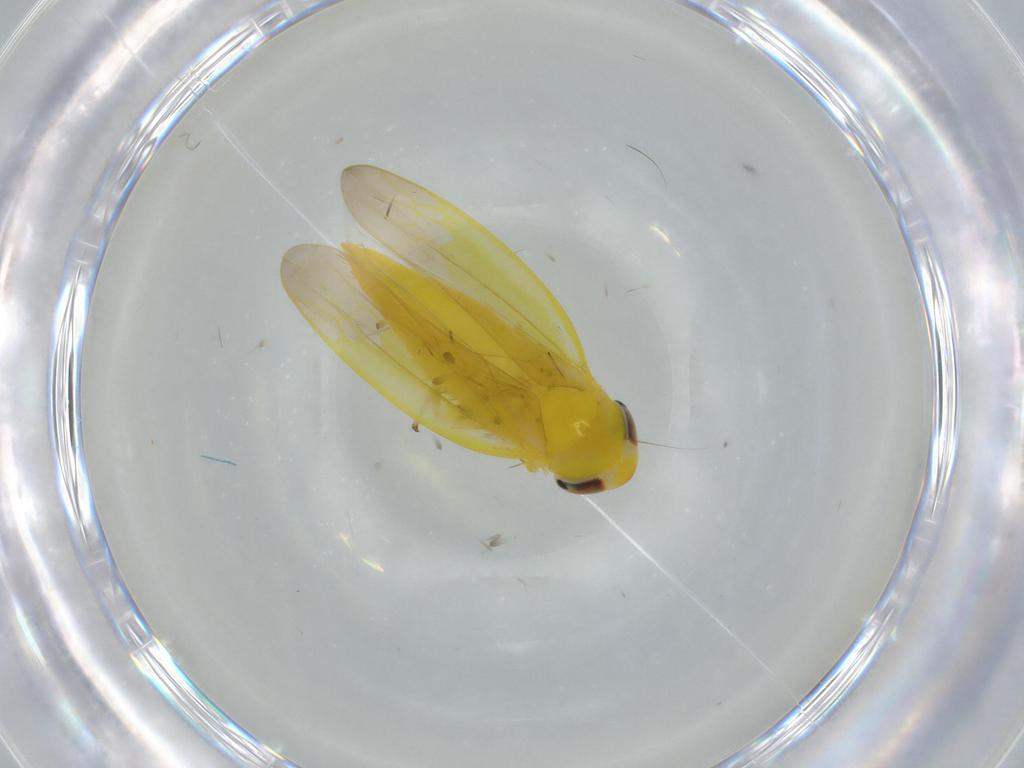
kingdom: Animalia
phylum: Arthropoda
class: Insecta
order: Hemiptera
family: Cicadellidae
